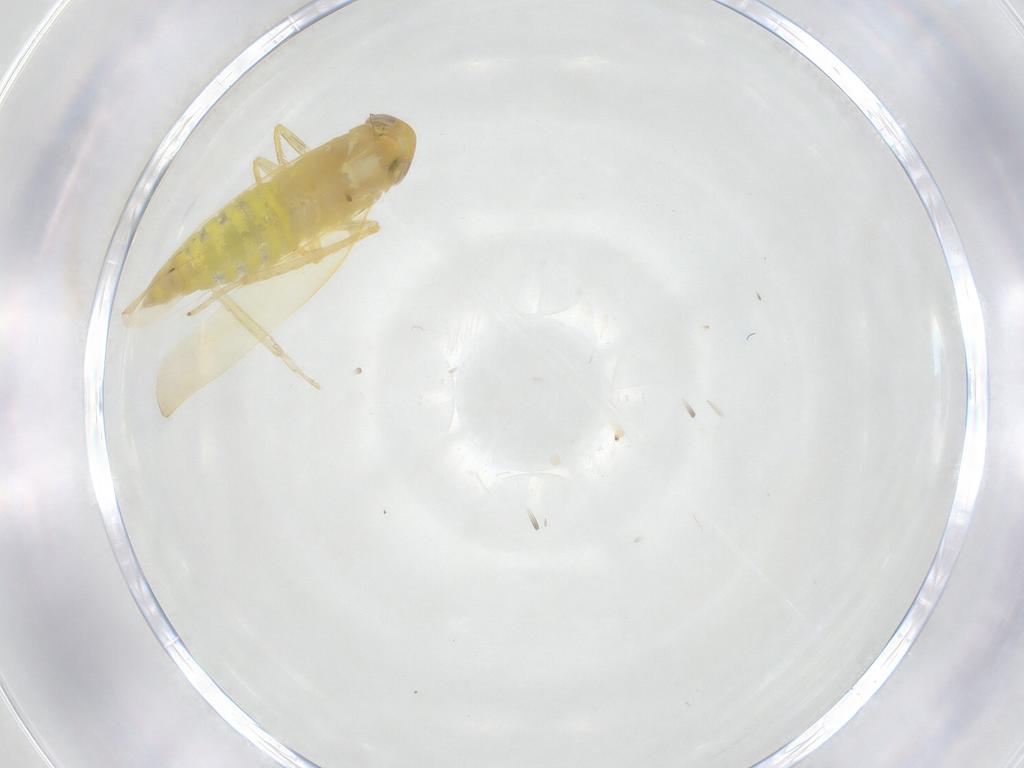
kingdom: Animalia
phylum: Arthropoda
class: Insecta
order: Hemiptera
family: Cicadellidae
